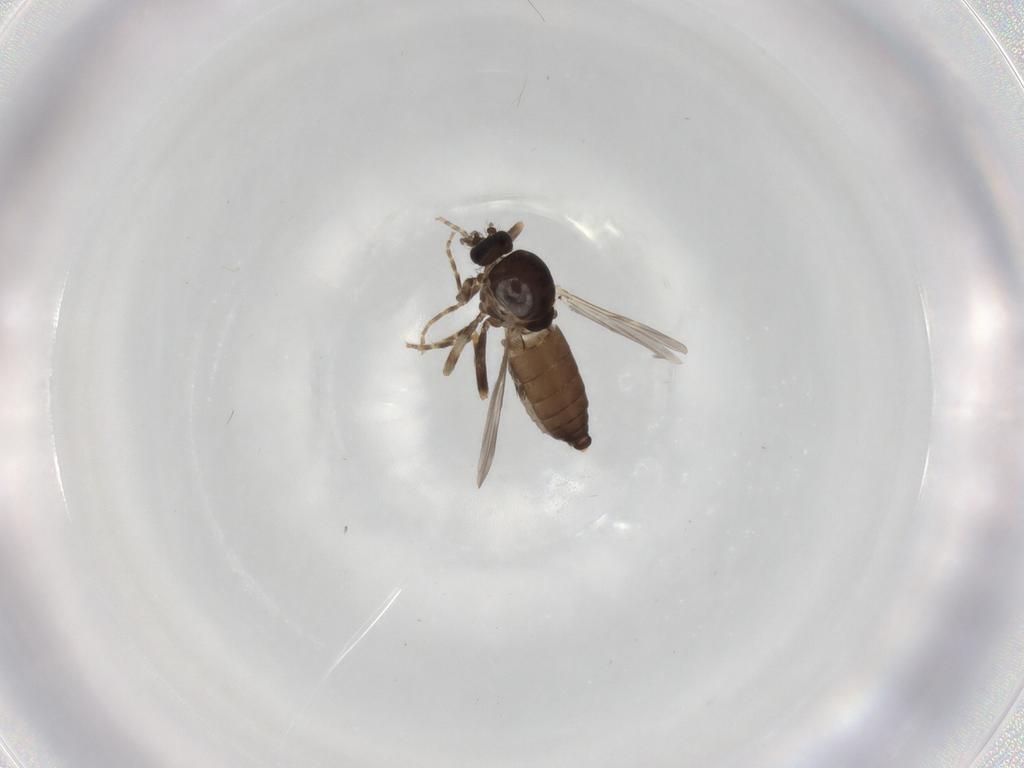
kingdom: Animalia
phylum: Arthropoda
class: Insecta
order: Diptera
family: Ceratopogonidae
